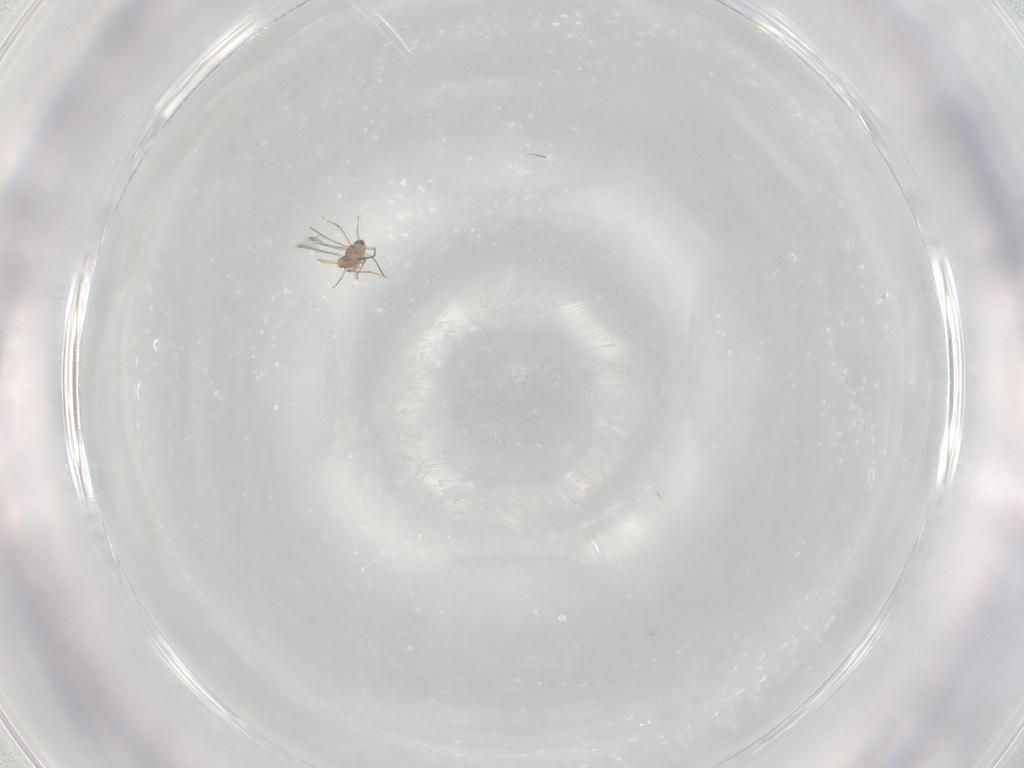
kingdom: Animalia
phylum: Arthropoda
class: Insecta
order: Hymenoptera
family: Mymaridae
